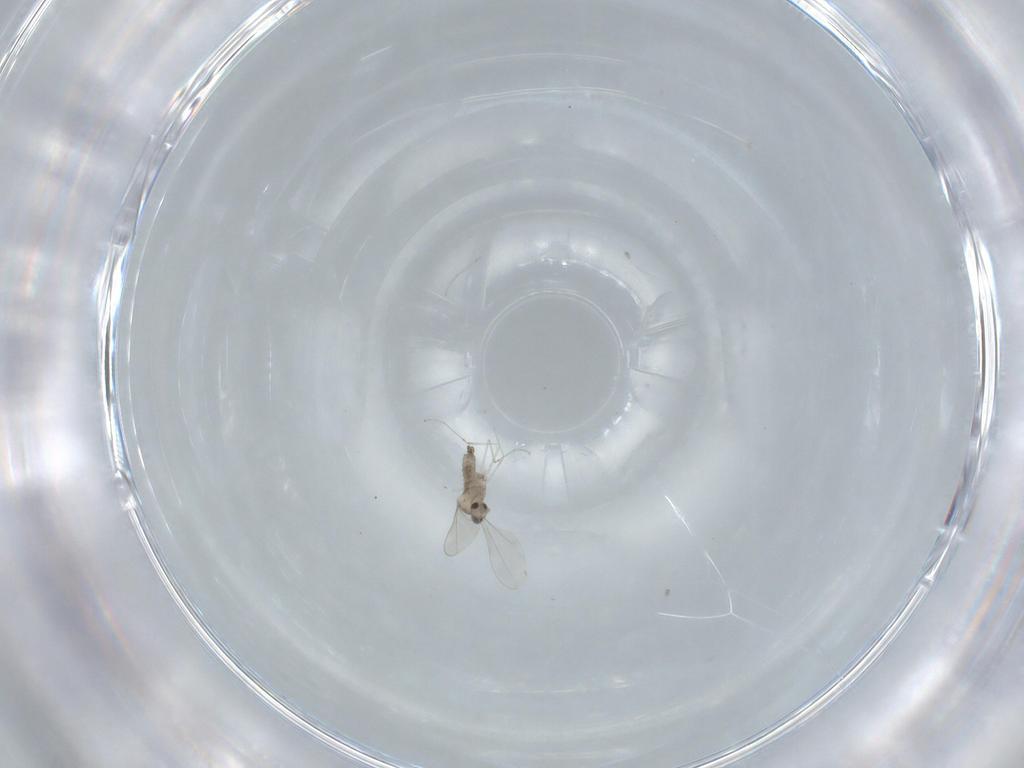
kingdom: Animalia
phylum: Arthropoda
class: Insecta
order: Diptera
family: Cecidomyiidae
